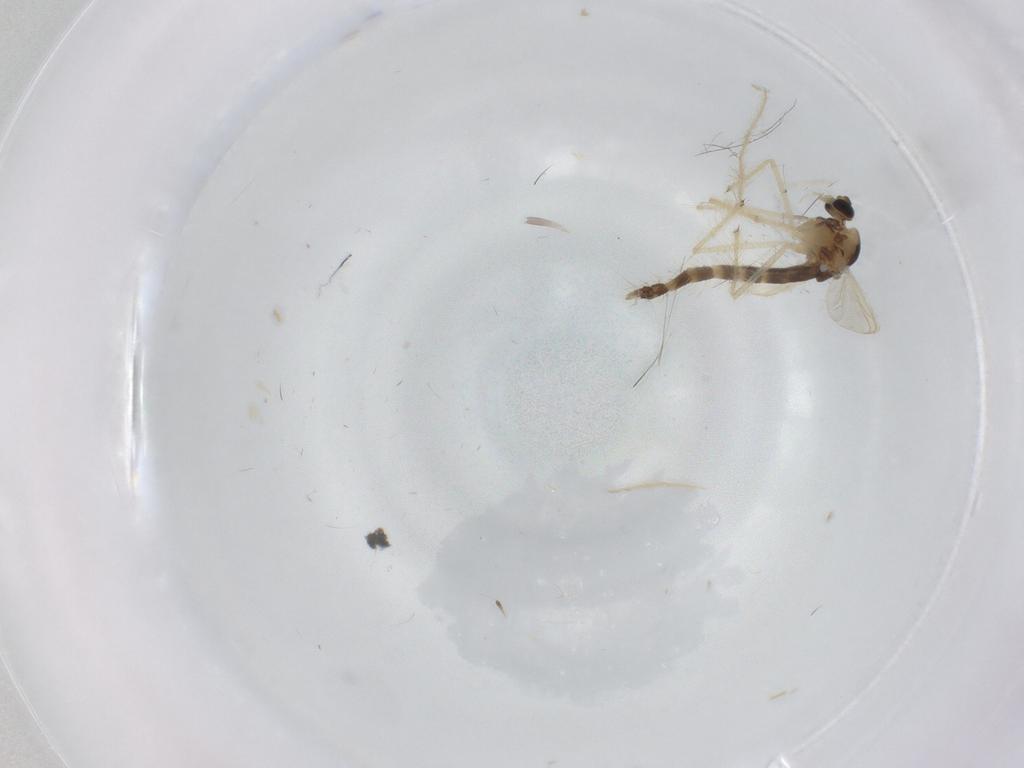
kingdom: Animalia
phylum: Arthropoda
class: Insecta
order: Diptera
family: Chironomidae
